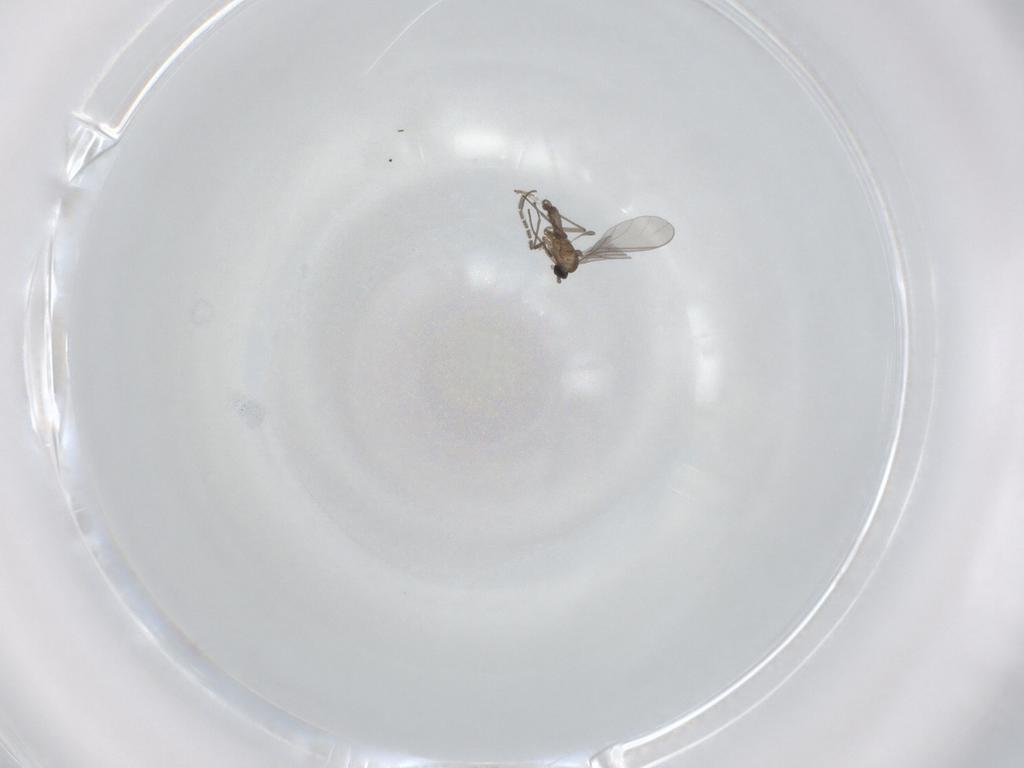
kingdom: Animalia
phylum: Arthropoda
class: Insecta
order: Diptera
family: Sciaridae
